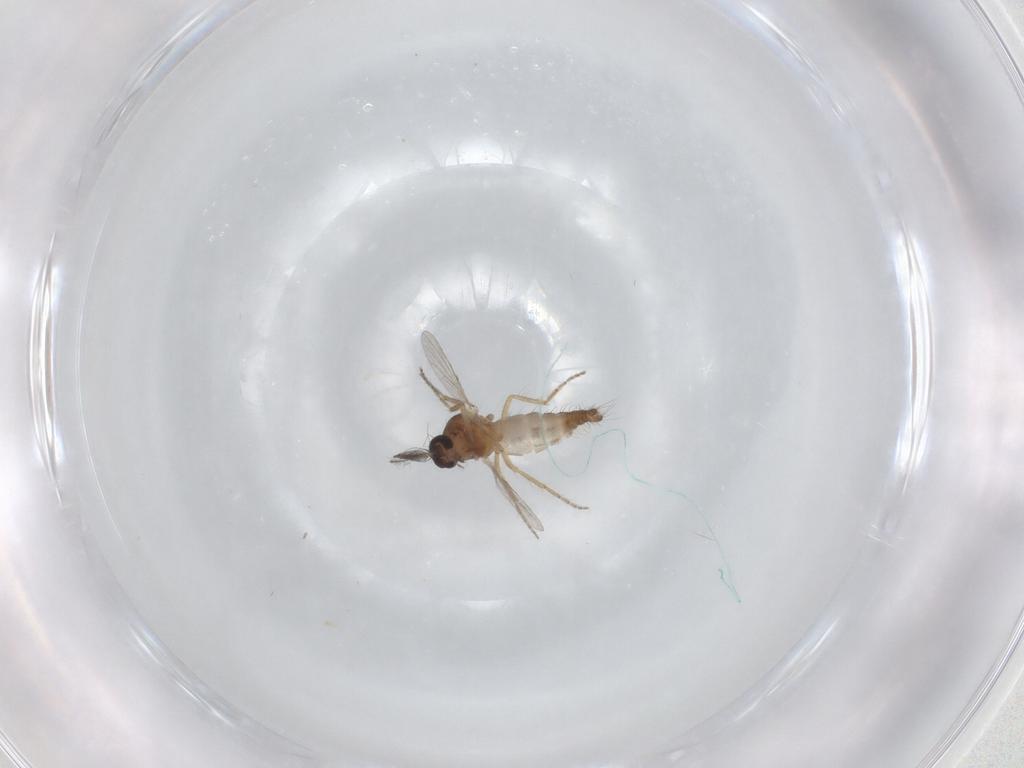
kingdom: Animalia
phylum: Arthropoda
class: Insecta
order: Diptera
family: Ceratopogonidae
